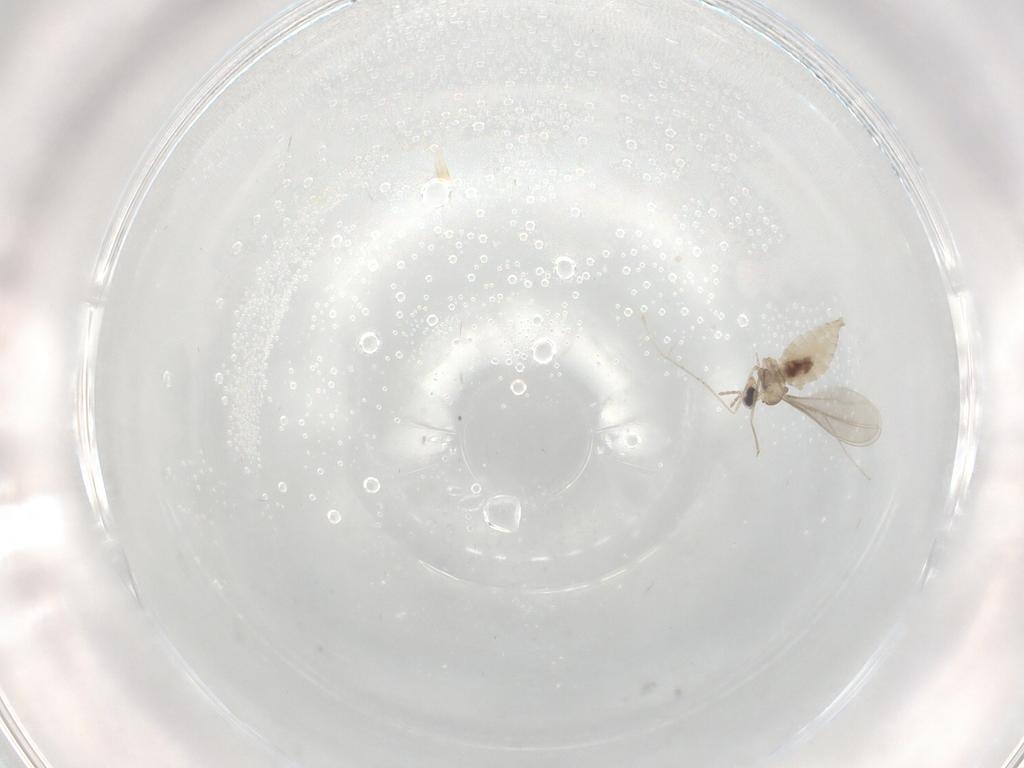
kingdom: Animalia
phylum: Arthropoda
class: Insecta
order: Diptera
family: Cecidomyiidae
